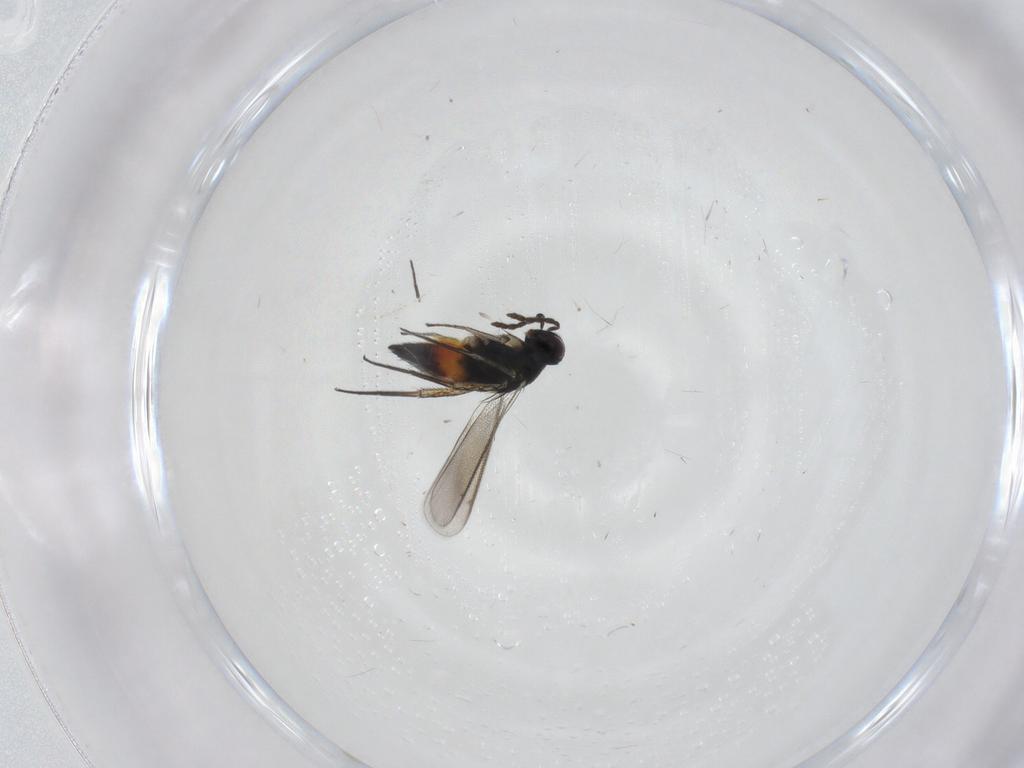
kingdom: Animalia
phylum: Arthropoda
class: Insecta
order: Hymenoptera
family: Eulophidae
